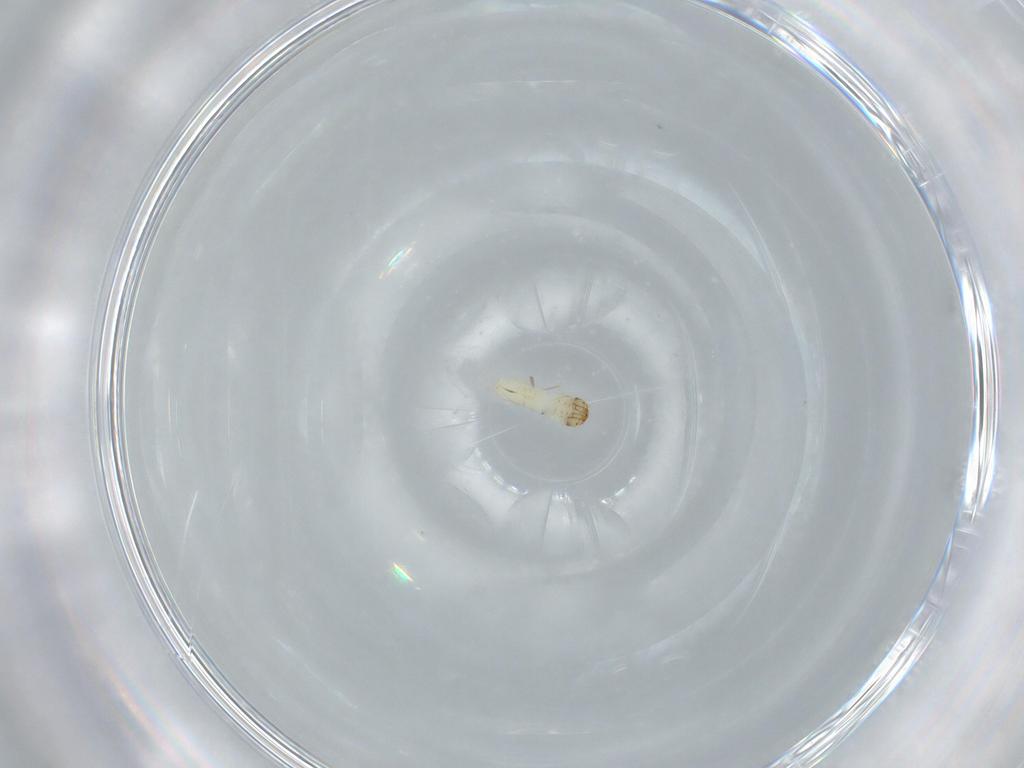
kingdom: Animalia
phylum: Arthropoda
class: Insecta
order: Lepidoptera
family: Tineidae
